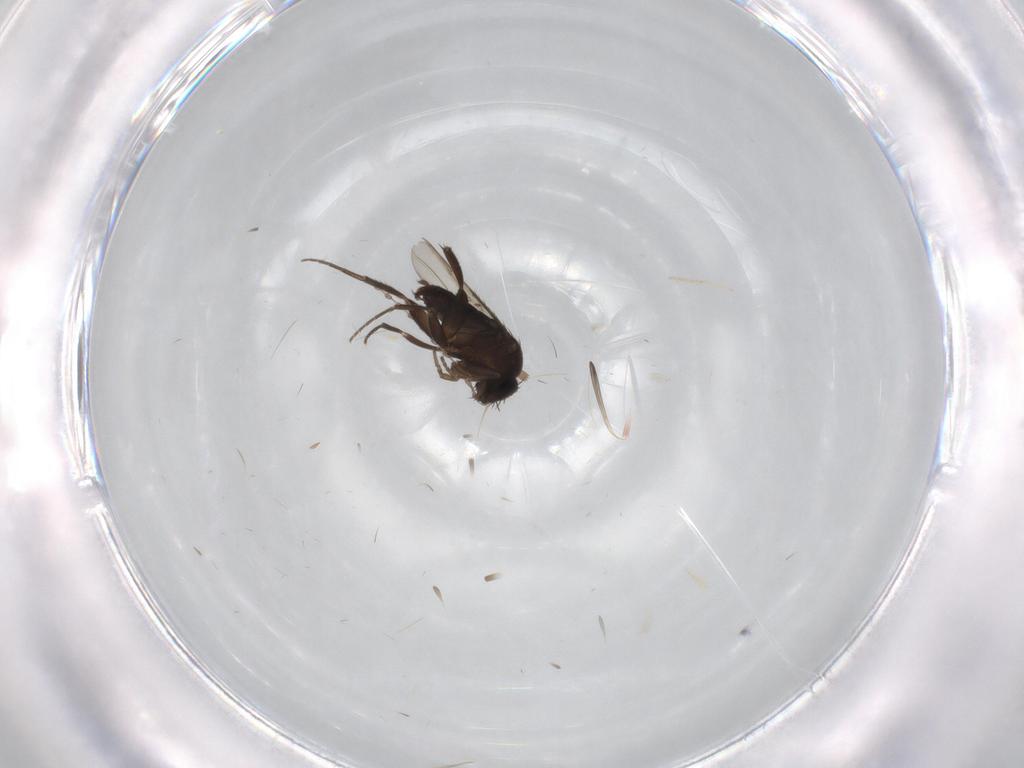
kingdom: Animalia
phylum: Arthropoda
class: Insecta
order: Diptera
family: Phoridae
